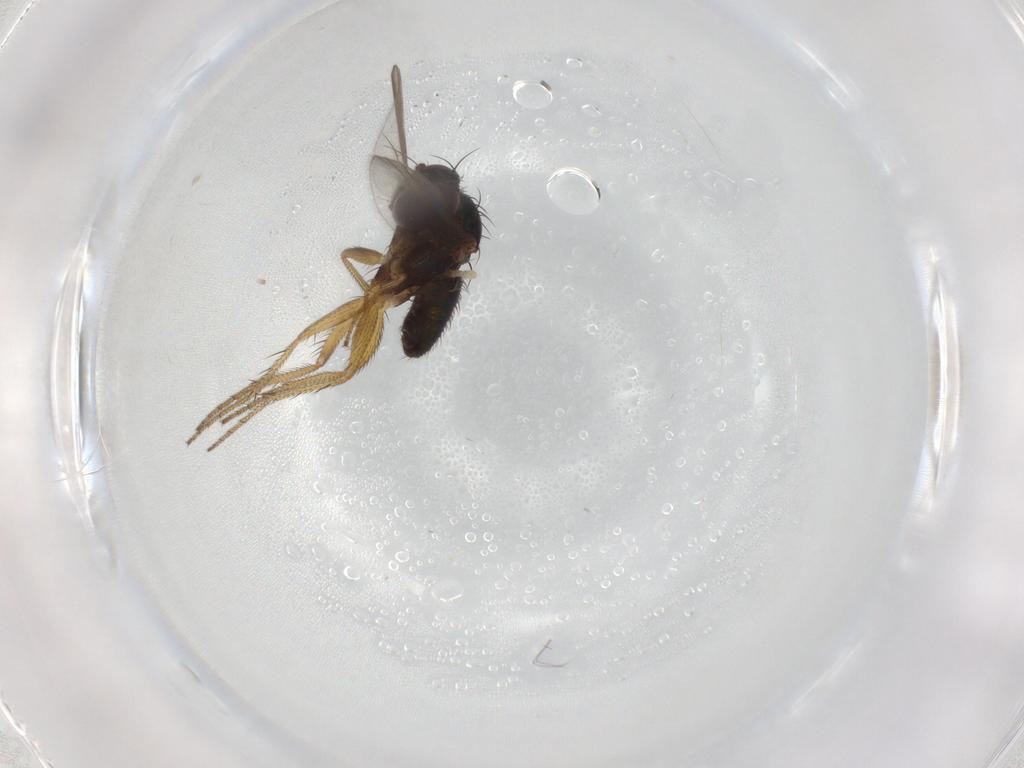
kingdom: Animalia
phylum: Arthropoda
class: Insecta
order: Diptera
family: Dolichopodidae
